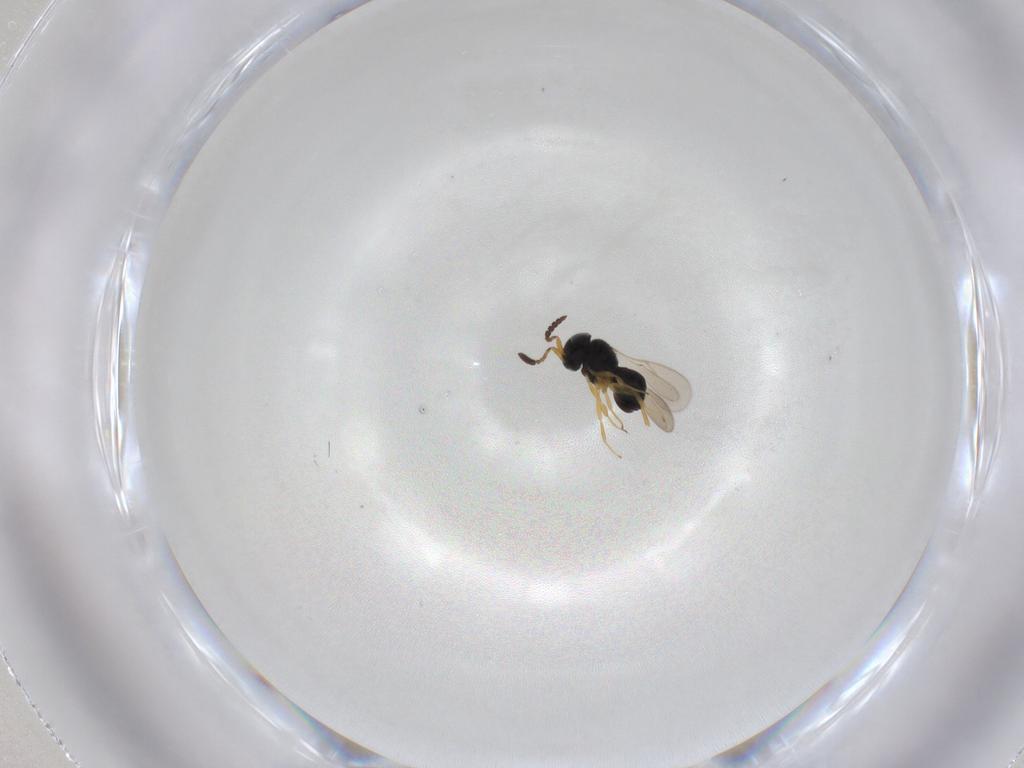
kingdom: Animalia
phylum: Arthropoda
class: Insecta
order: Hymenoptera
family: Scelionidae
